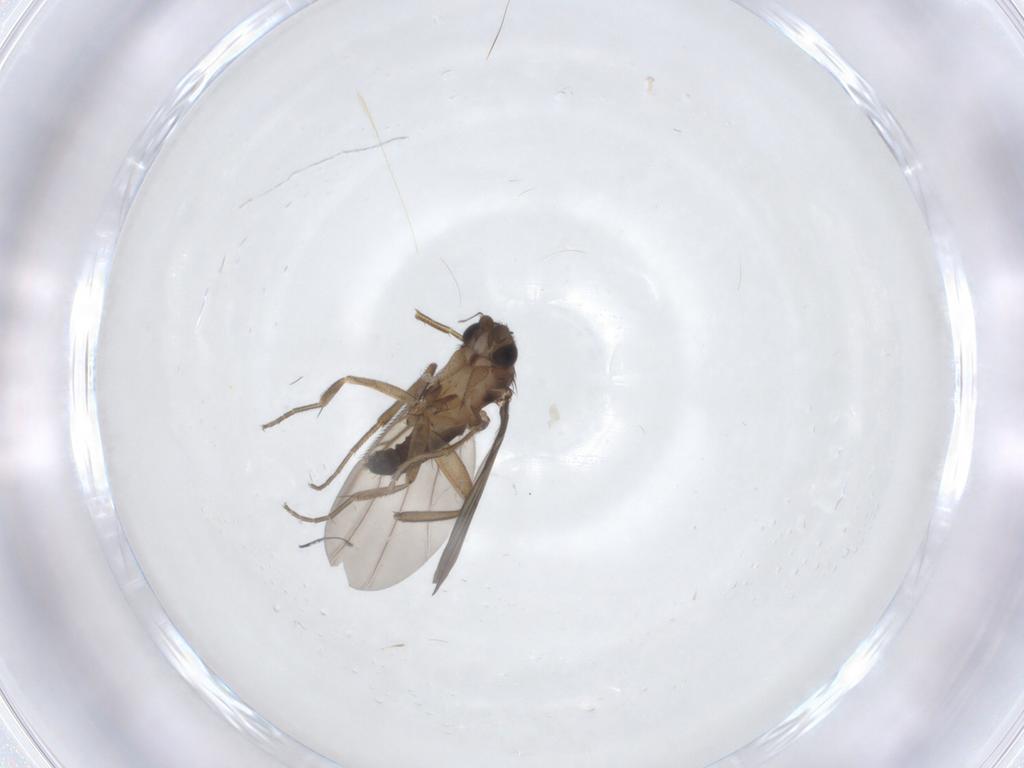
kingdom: Animalia
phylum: Arthropoda
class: Insecta
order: Diptera
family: Phoridae
